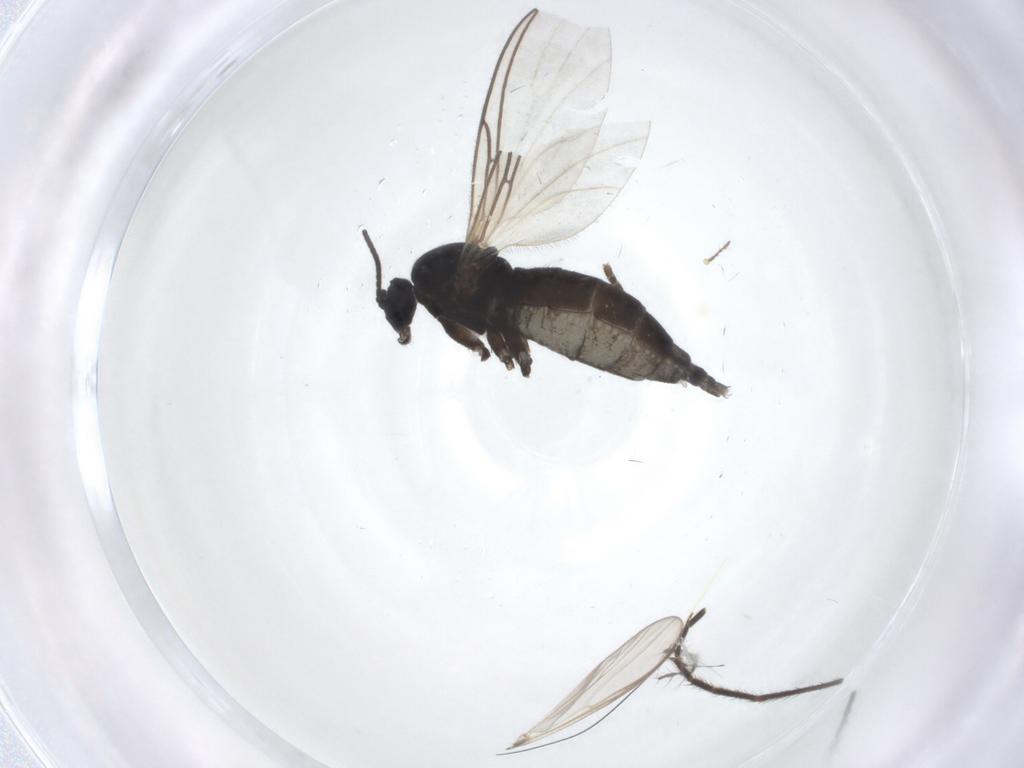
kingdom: Animalia
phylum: Arthropoda
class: Insecta
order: Diptera
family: Sciaridae
